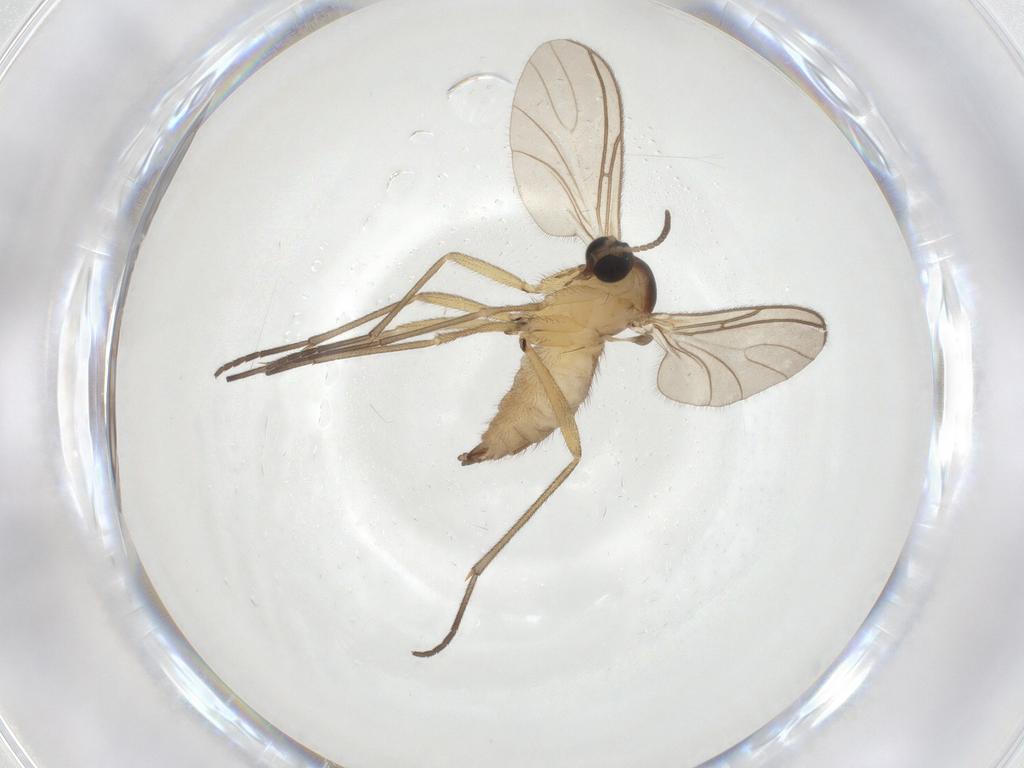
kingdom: Animalia
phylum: Arthropoda
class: Insecta
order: Diptera
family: Sciaridae
